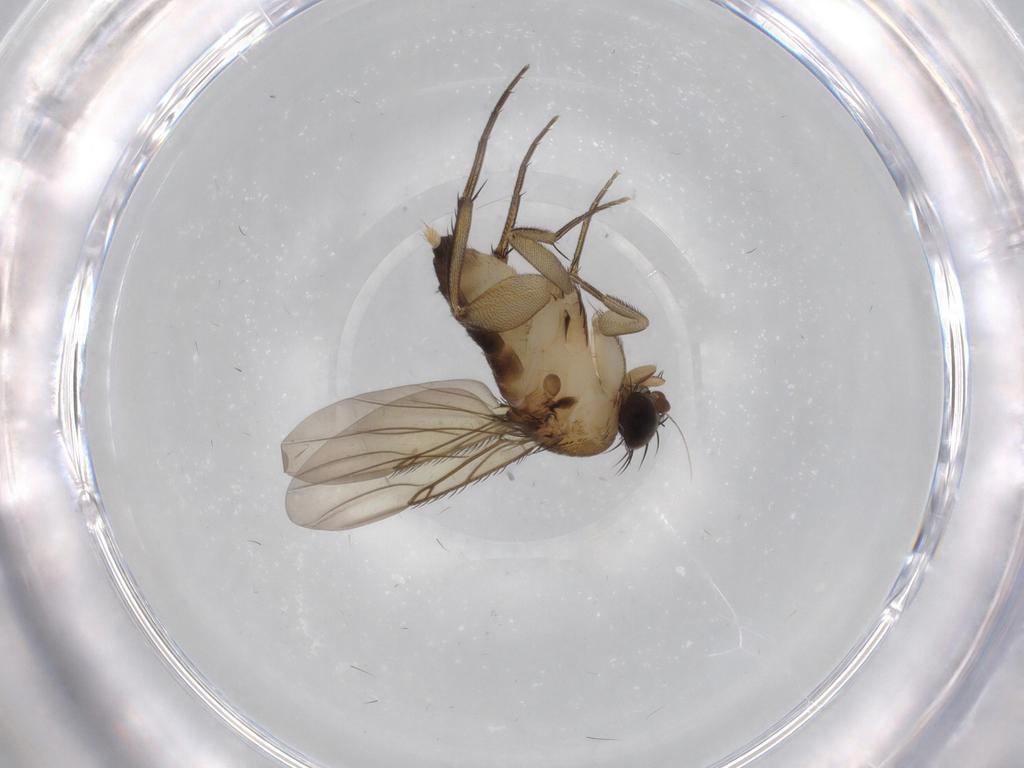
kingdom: Animalia
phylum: Arthropoda
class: Insecta
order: Diptera
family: Phoridae
